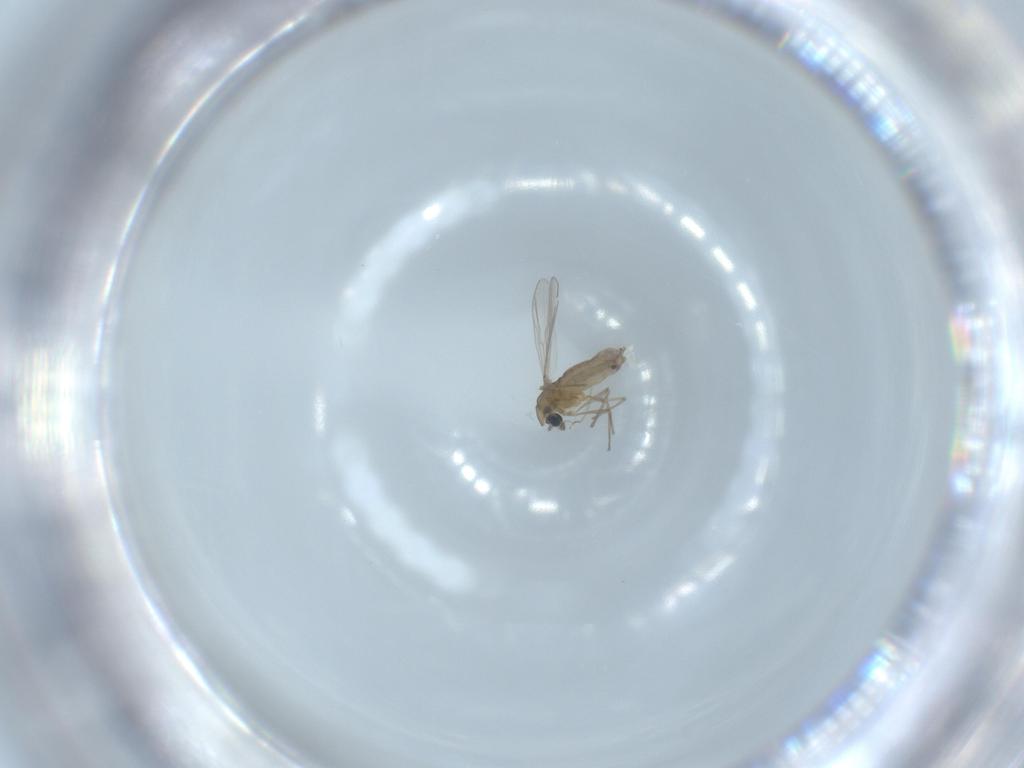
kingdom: Animalia
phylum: Arthropoda
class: Insecta
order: Diptera
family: Chironomidae
